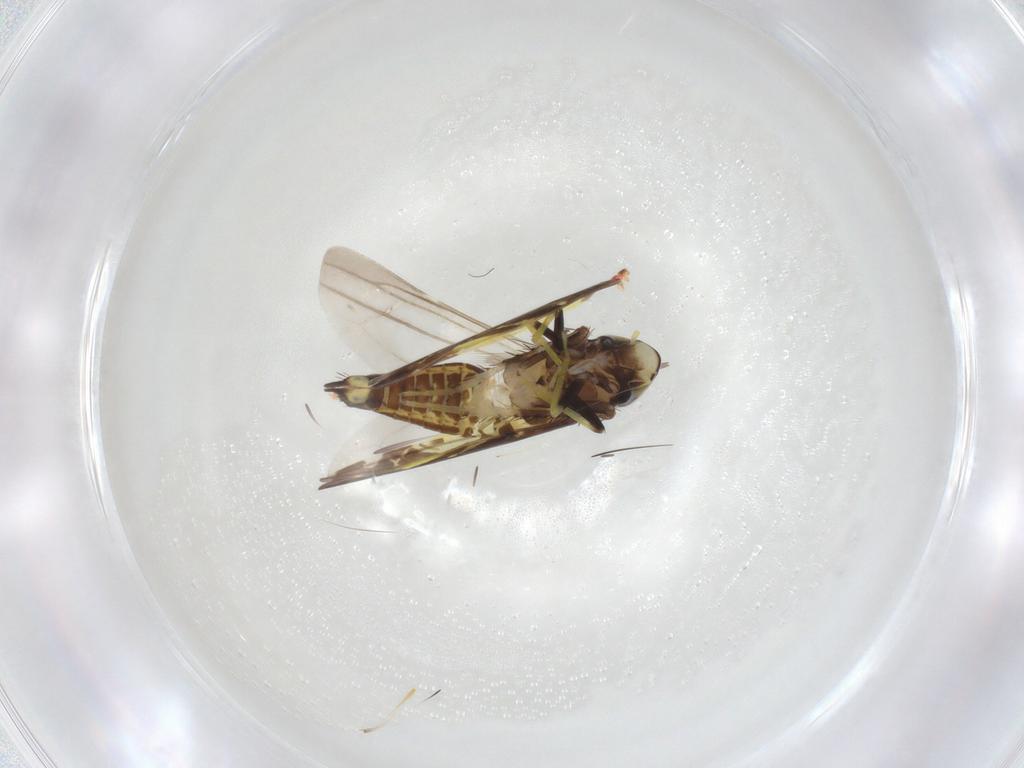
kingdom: Animalia
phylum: Arthropoda
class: Insecta
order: Hemiptera
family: Cicadellidae
